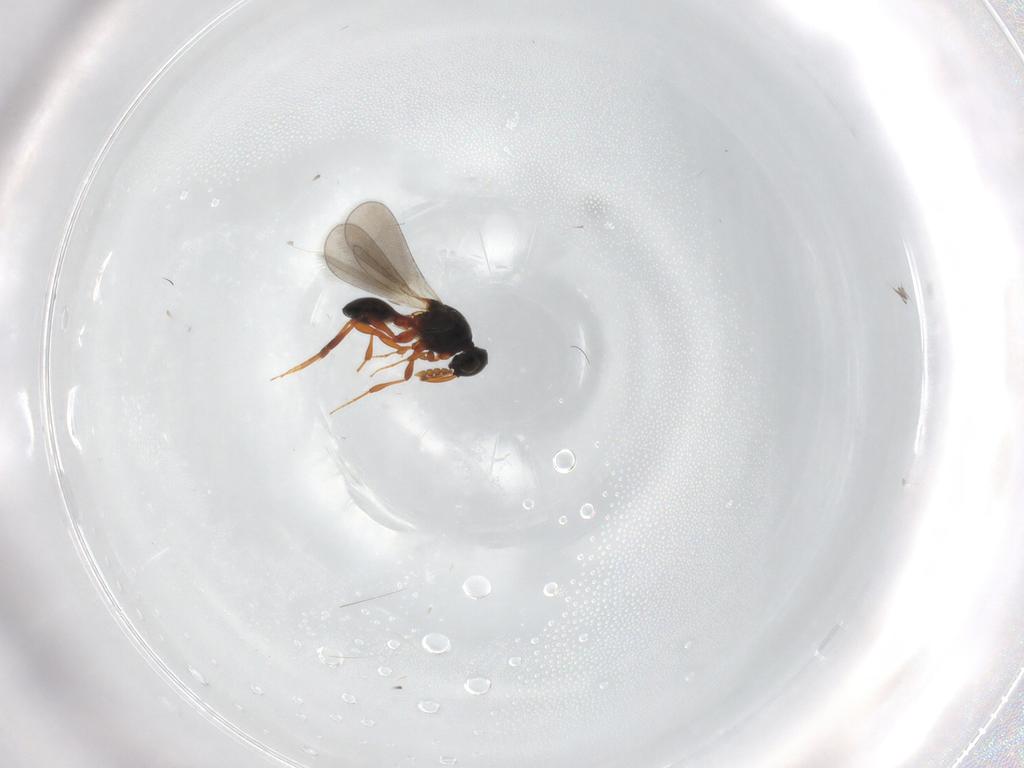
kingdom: Animalia
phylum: Arthropoda
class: Insecta
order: Hymenoptera
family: Platygastridae
